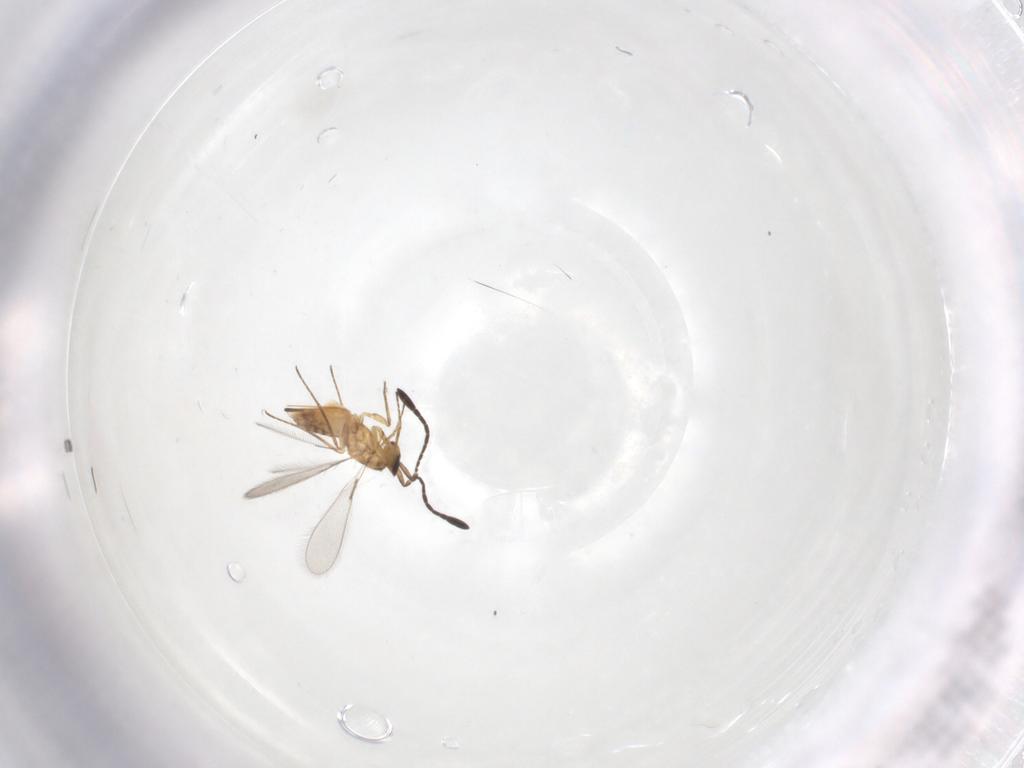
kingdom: Animalia
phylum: Arthropoda
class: Insecta
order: Hymenoptera
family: Mymaridae
